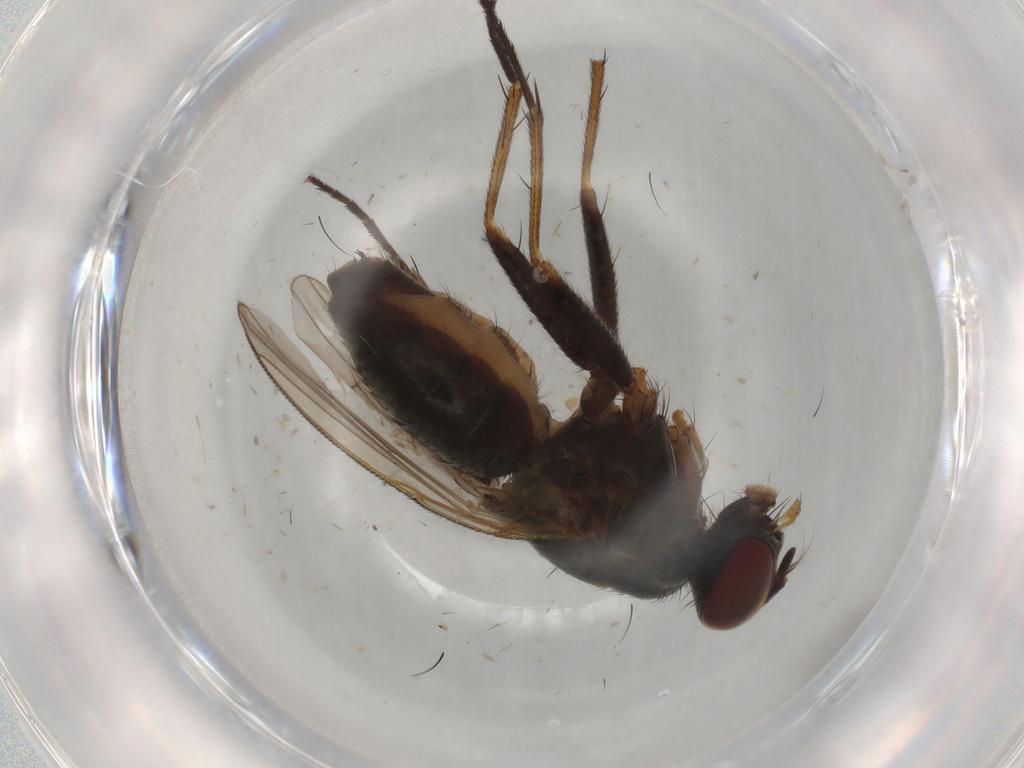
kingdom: Animalia
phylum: Arthropoda
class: Insecta
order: Diptera
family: Muscidae
